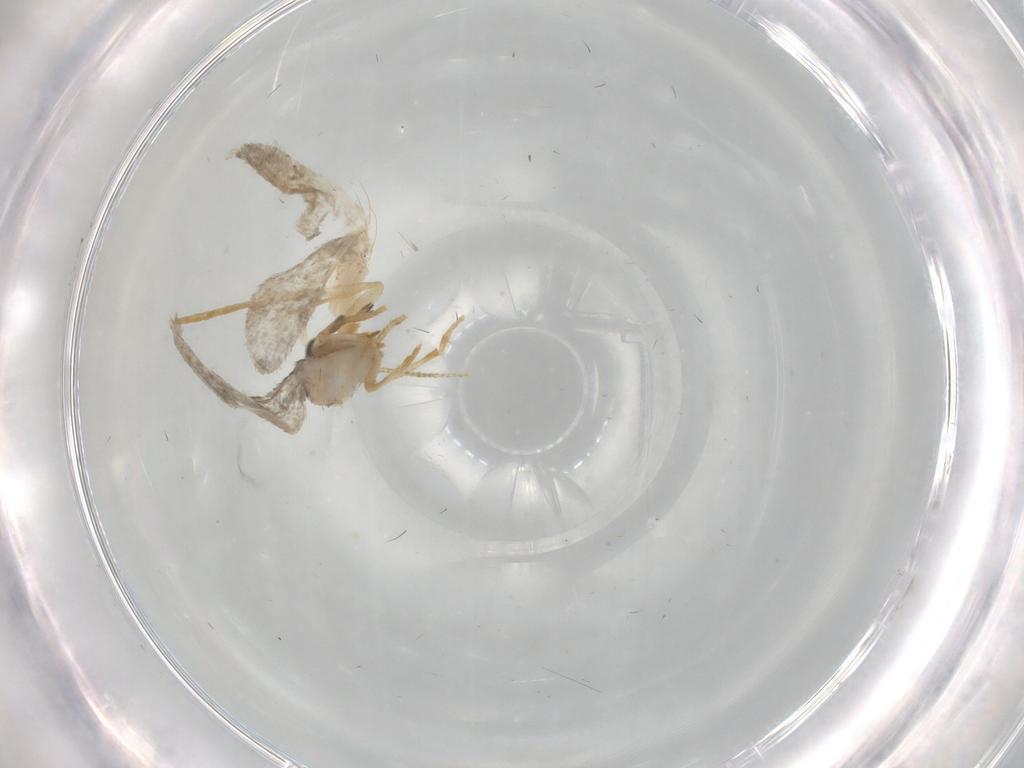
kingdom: Animalia
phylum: Arthropoda
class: Insecta
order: Lepidoptera
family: Psychidae
